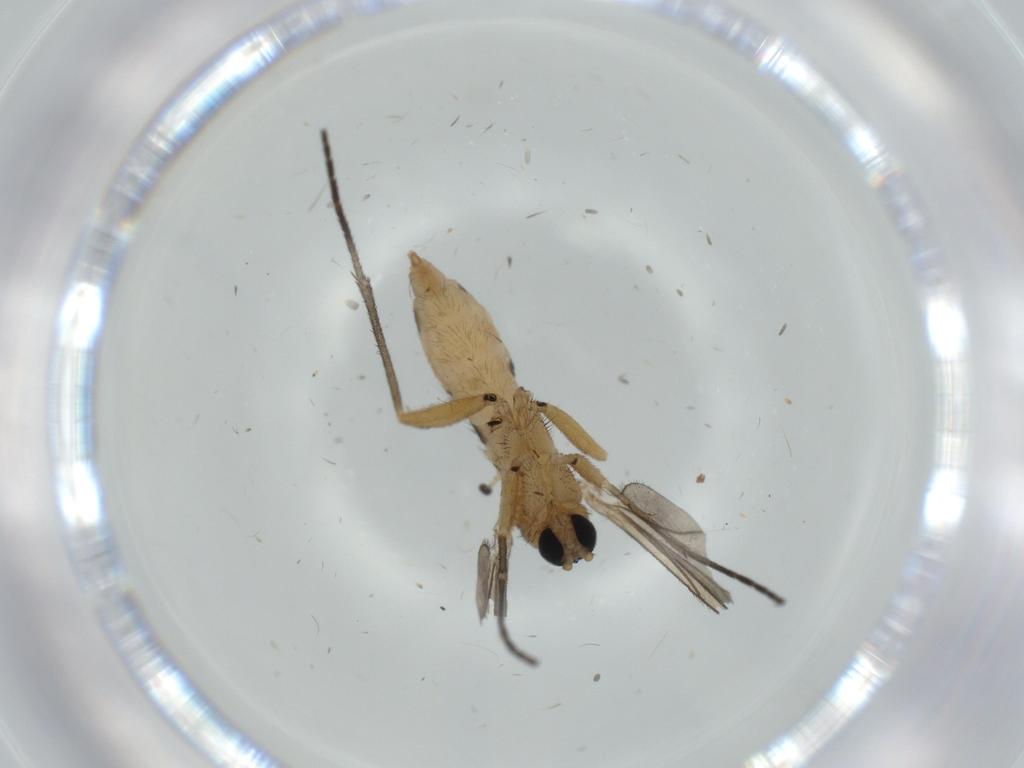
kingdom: Animalia
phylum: Arthropoda
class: Insecta
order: Diptera
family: Sciaridae
